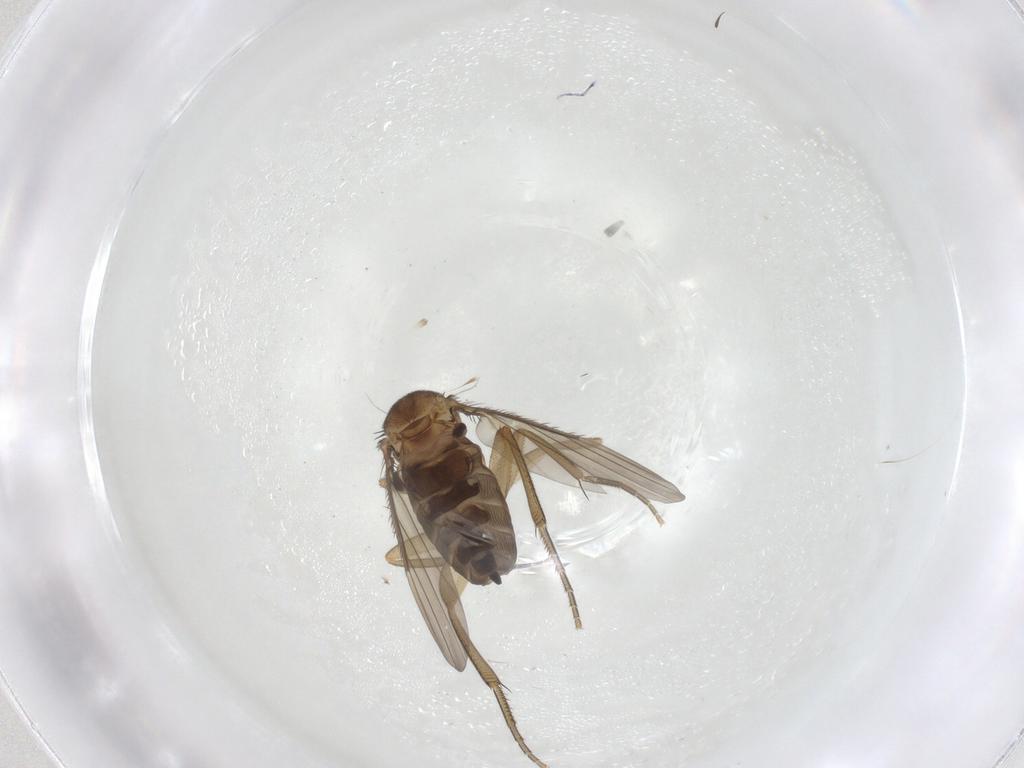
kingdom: Animalia
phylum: Arthropoda
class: Insecta
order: Diptera
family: Phoridae
